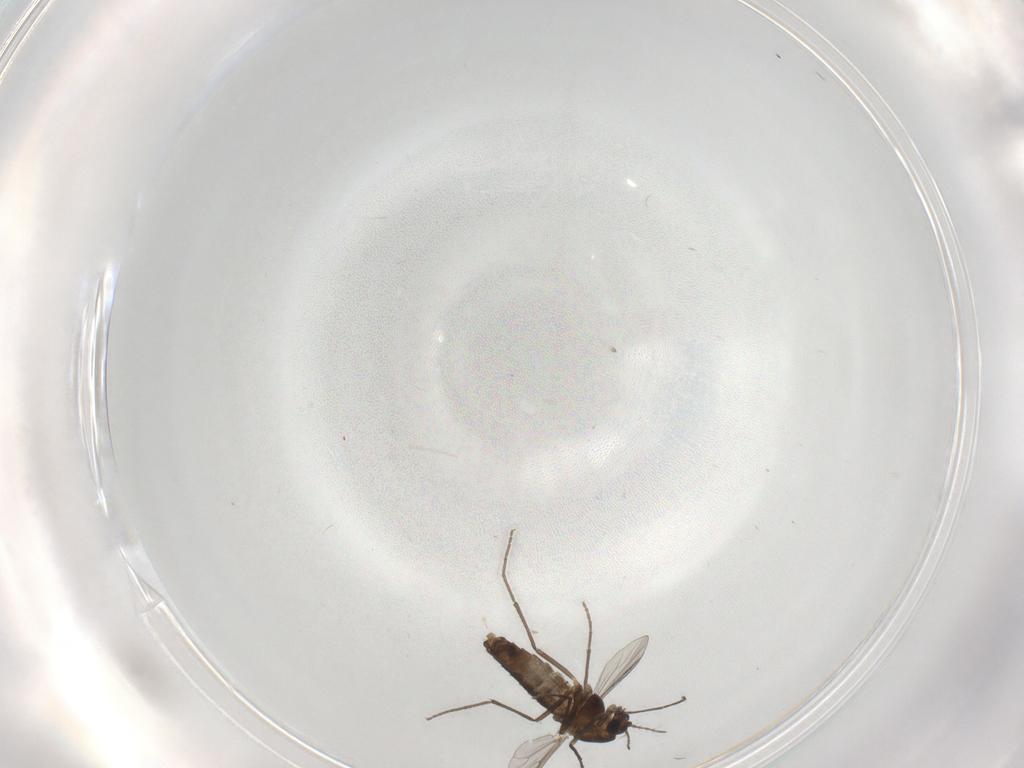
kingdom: Animalia
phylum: Arthropoda
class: Insecta
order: Diptera
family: Chironomidae
